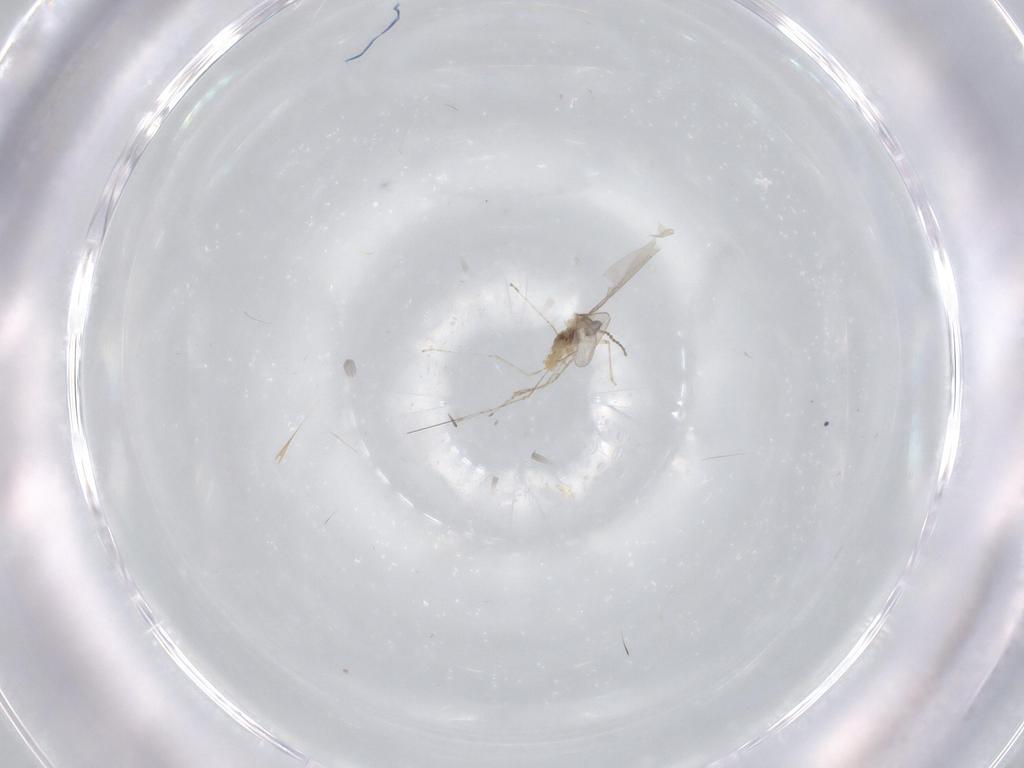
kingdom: Animalia
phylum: Arthropoda
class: Insecta
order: Diptera
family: Cecidomyiidae
